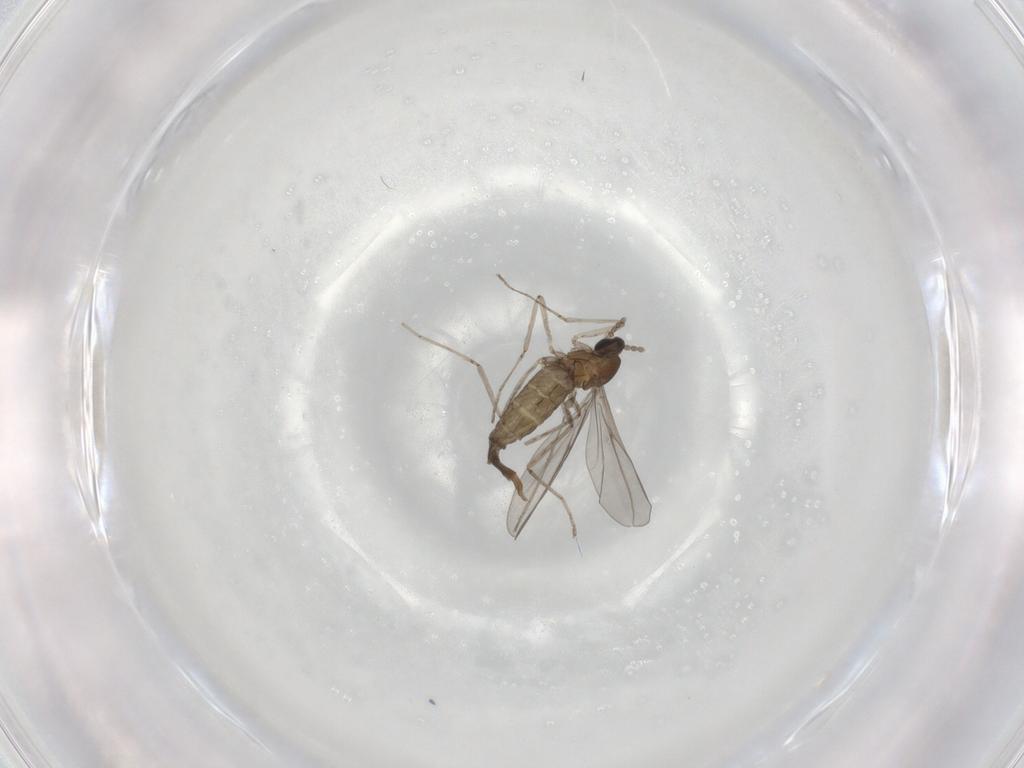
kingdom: Animalia
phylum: Arthropoda
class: Insecta
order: Diptera
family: Cecidomyiidae
